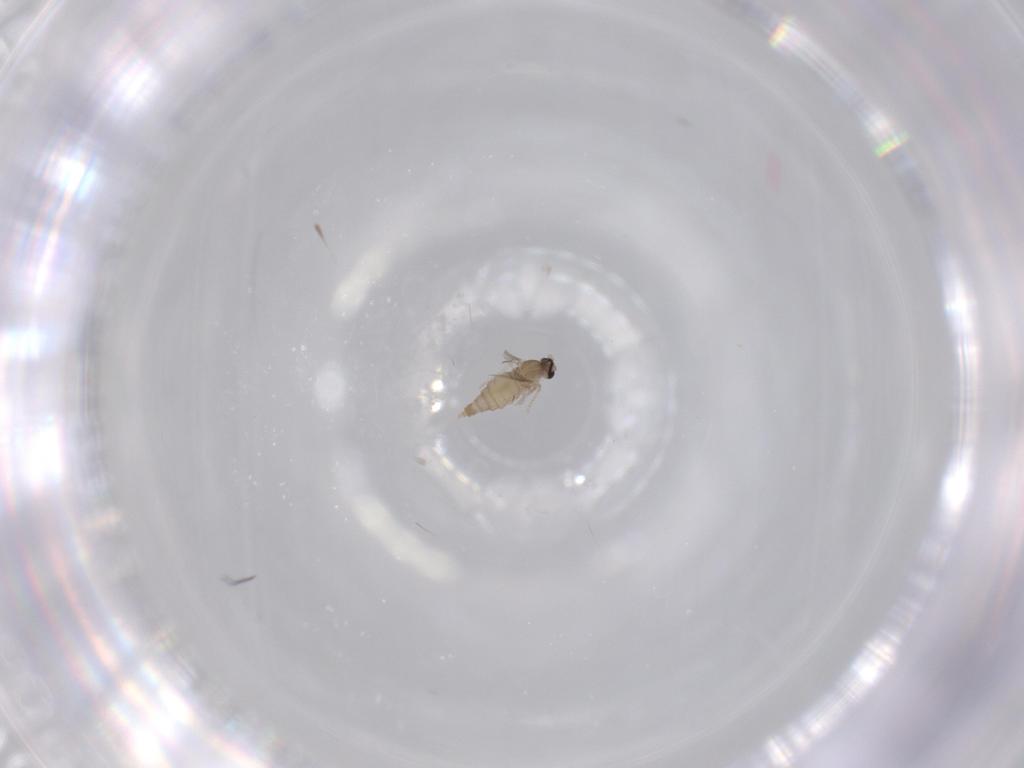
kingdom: Animalia
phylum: Arthropoda
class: Insecta
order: Diptera
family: Cecidomyiidae
